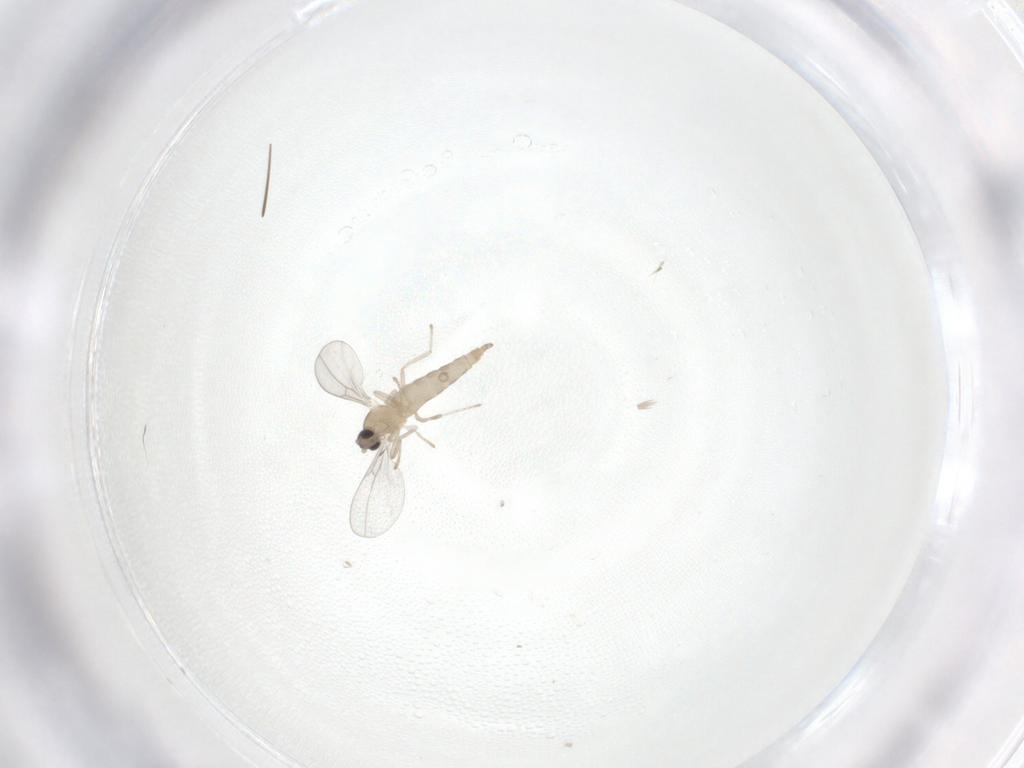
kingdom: Animalia
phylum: Arthropoda
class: Insecta
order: Diptera
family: Cecidomyiidae
